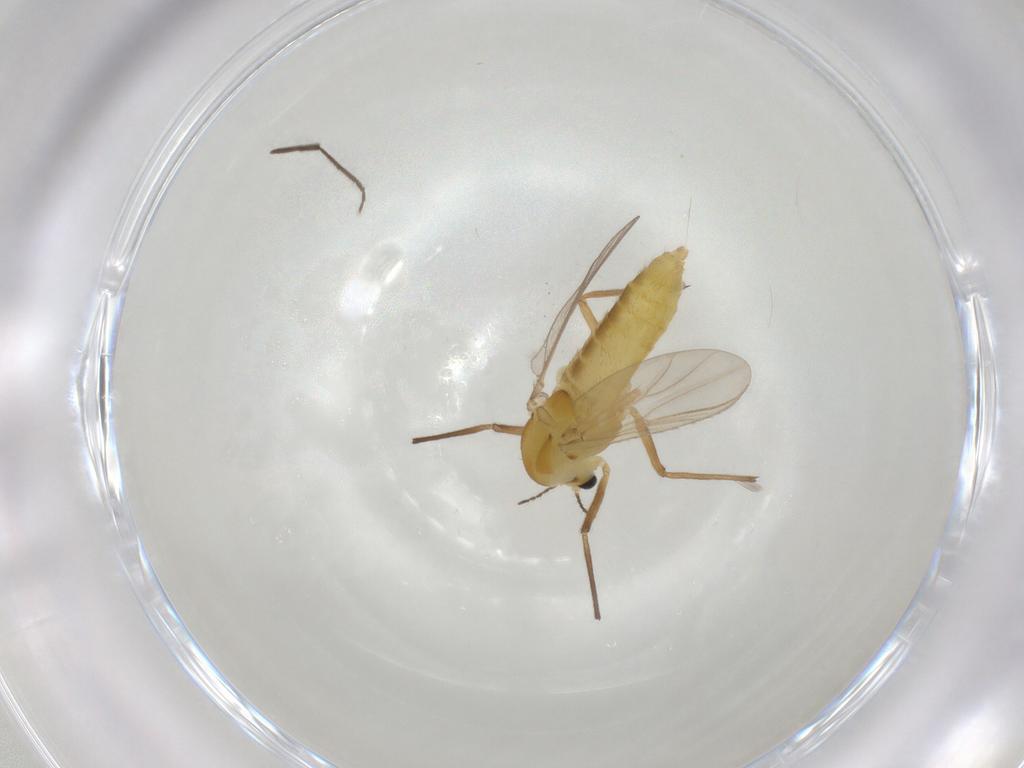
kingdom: Animalia
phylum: Arthropoda
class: Insecta
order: Diptera
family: Chironomidae
